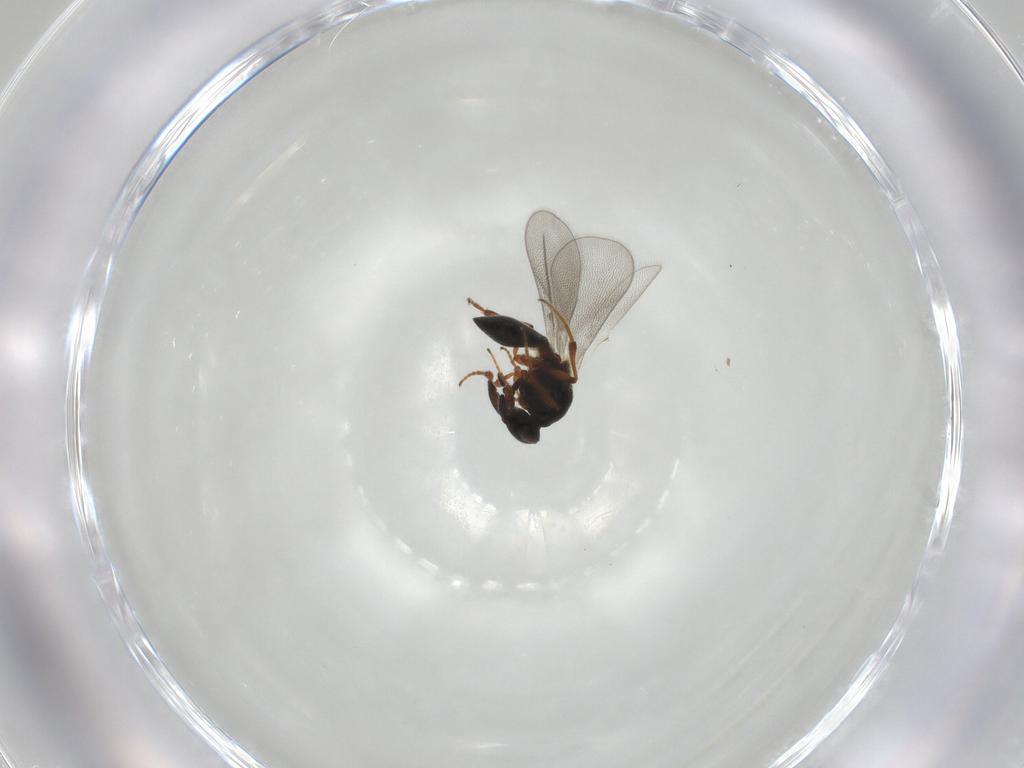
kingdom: Animalia
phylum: Arthropoda
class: Insecta
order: Hymenoptera
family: Platygastridae
